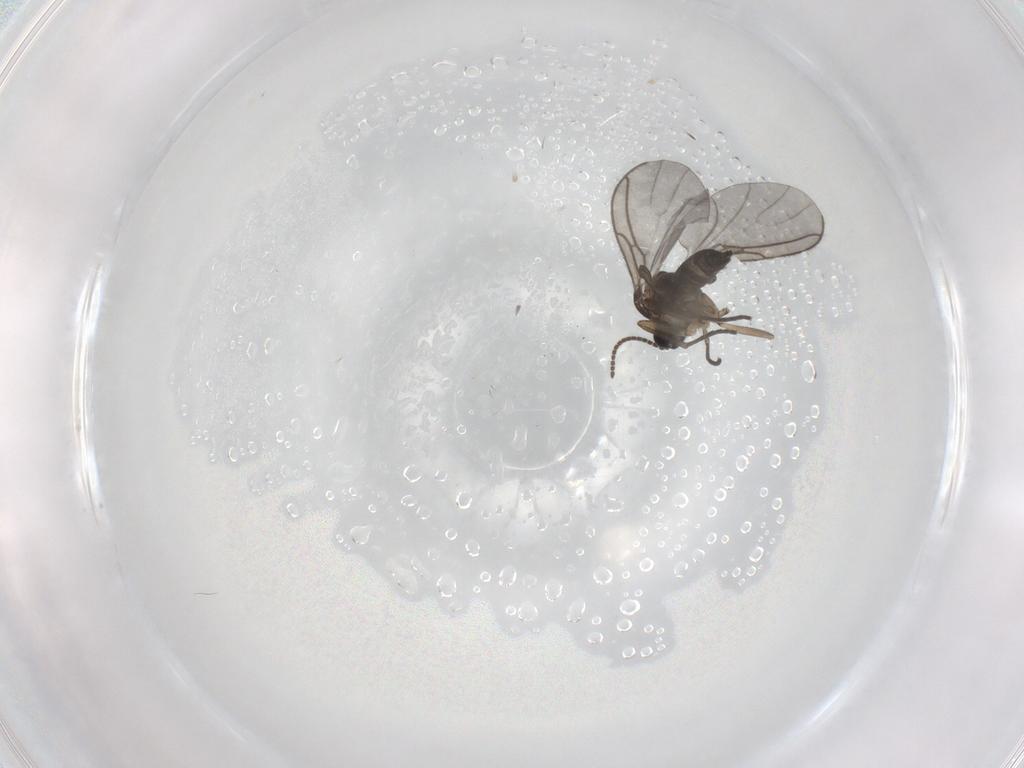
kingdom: Animalia
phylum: Arthropoda
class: Insecta
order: Diptera
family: Sciaridae
